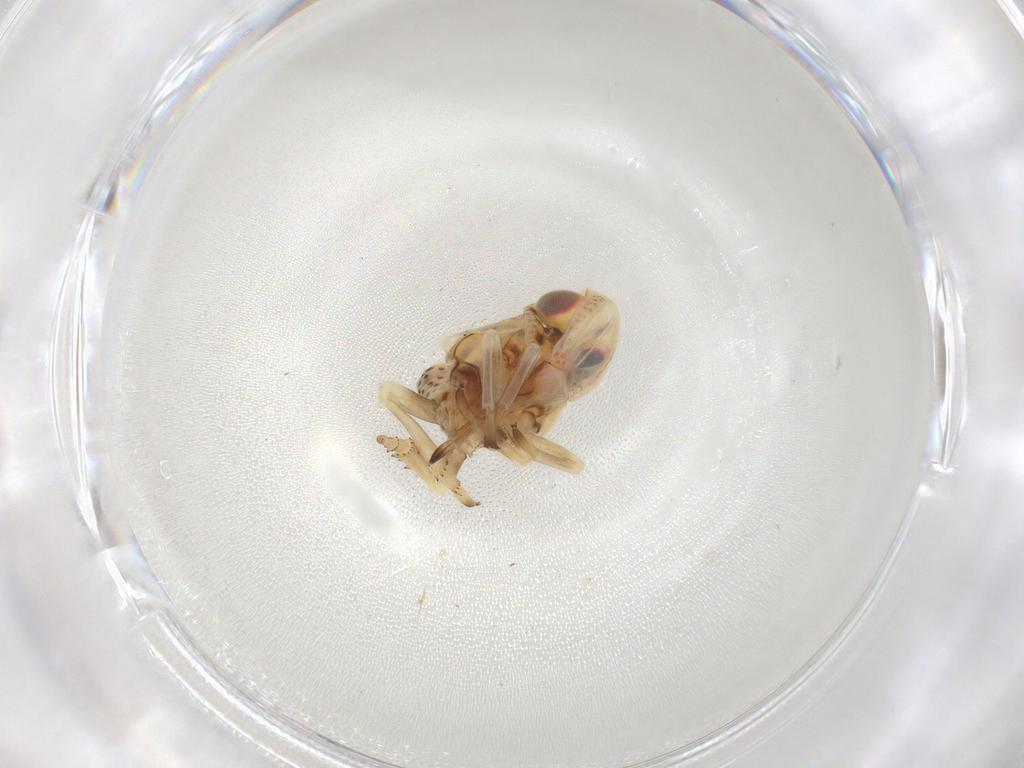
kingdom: Animalia
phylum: Arthropoda
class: Insecta
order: Hemiptera
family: Fulgoroidea_incertae_sedis
